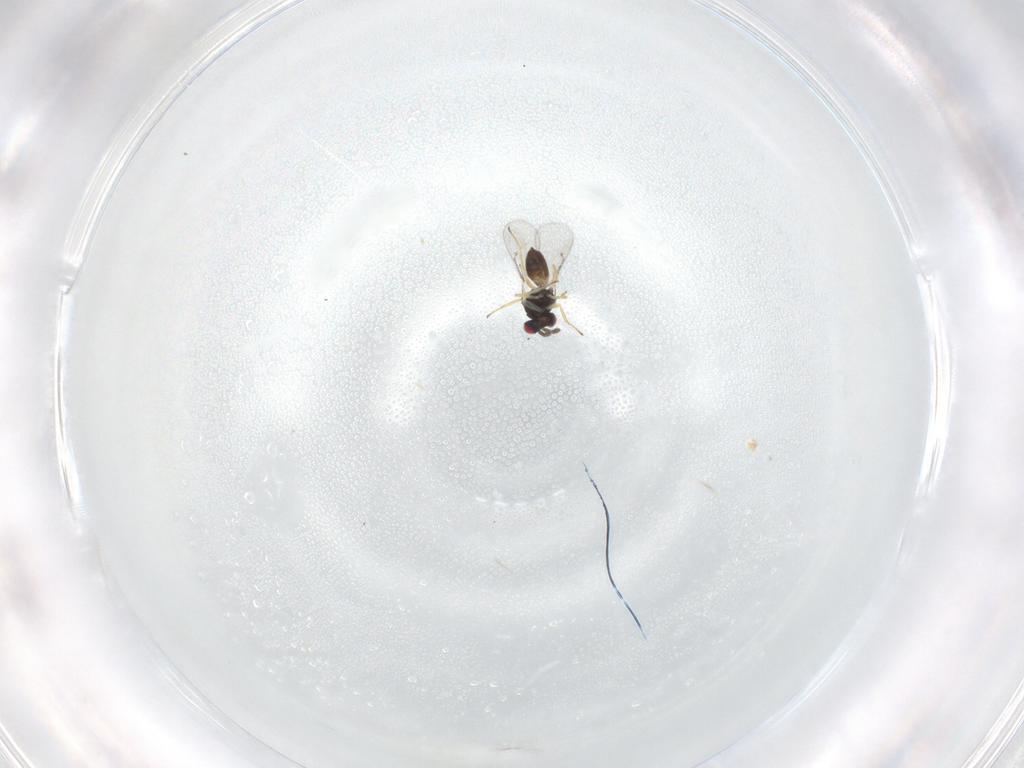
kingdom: Animalia
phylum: Arthropoda
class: Insecta
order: Hymenoptera
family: Eulophidae
